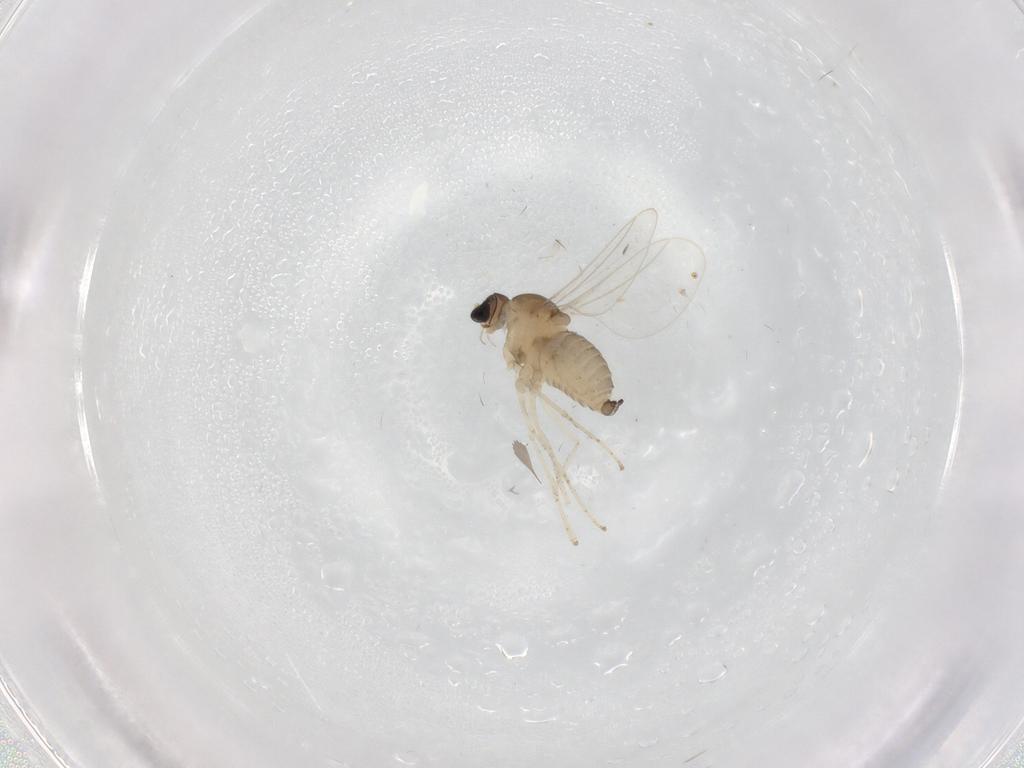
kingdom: Animalia
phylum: Arthropoda
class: Insecta
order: Diptera
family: Cecidomyiidae
